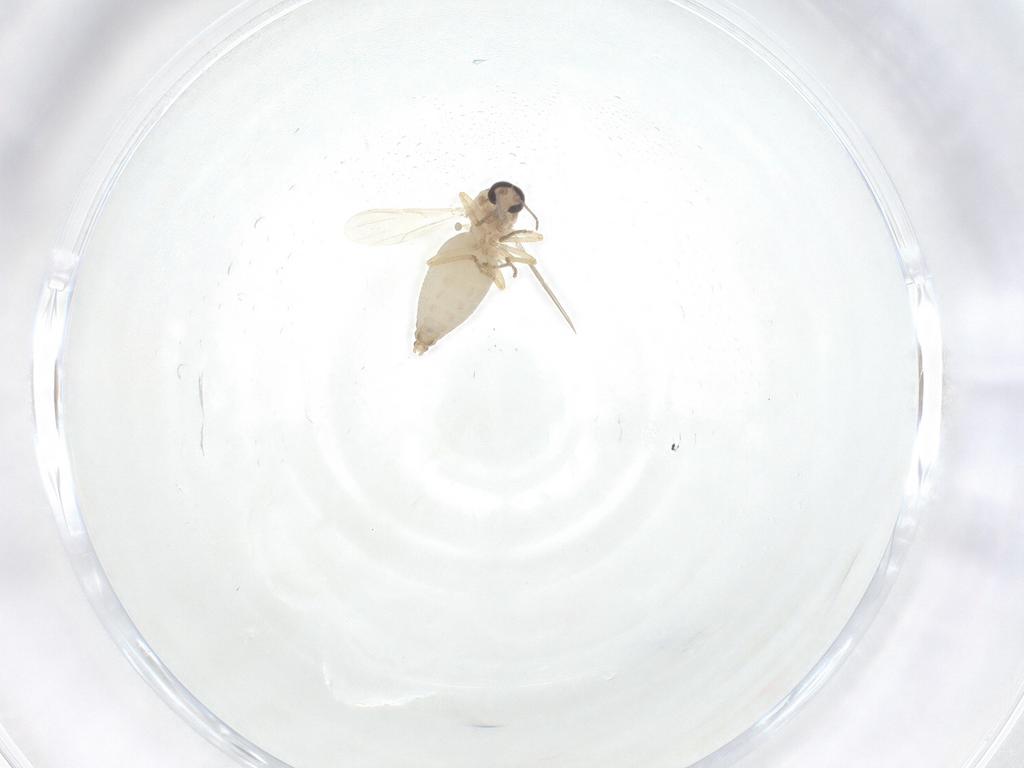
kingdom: Animalia
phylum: Arthropoda
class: Insecta
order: Diptera
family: Ceratopogonidae
